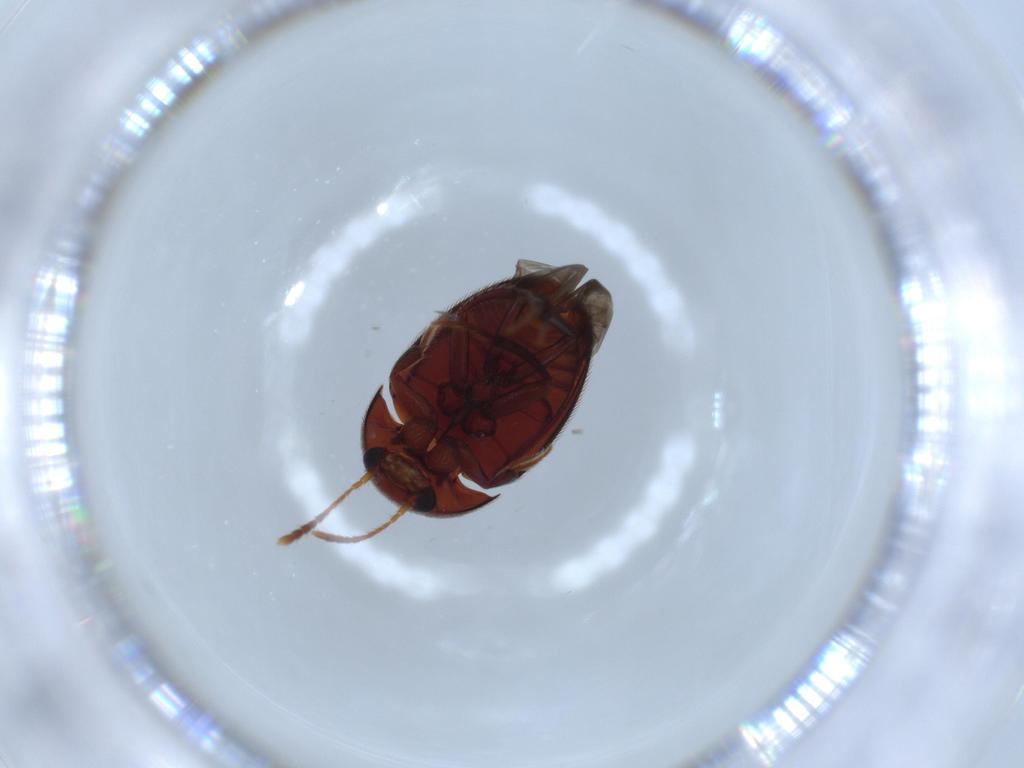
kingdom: Animalia
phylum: Arthropoda
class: Insecta
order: Coleoptera
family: Leiodidae
